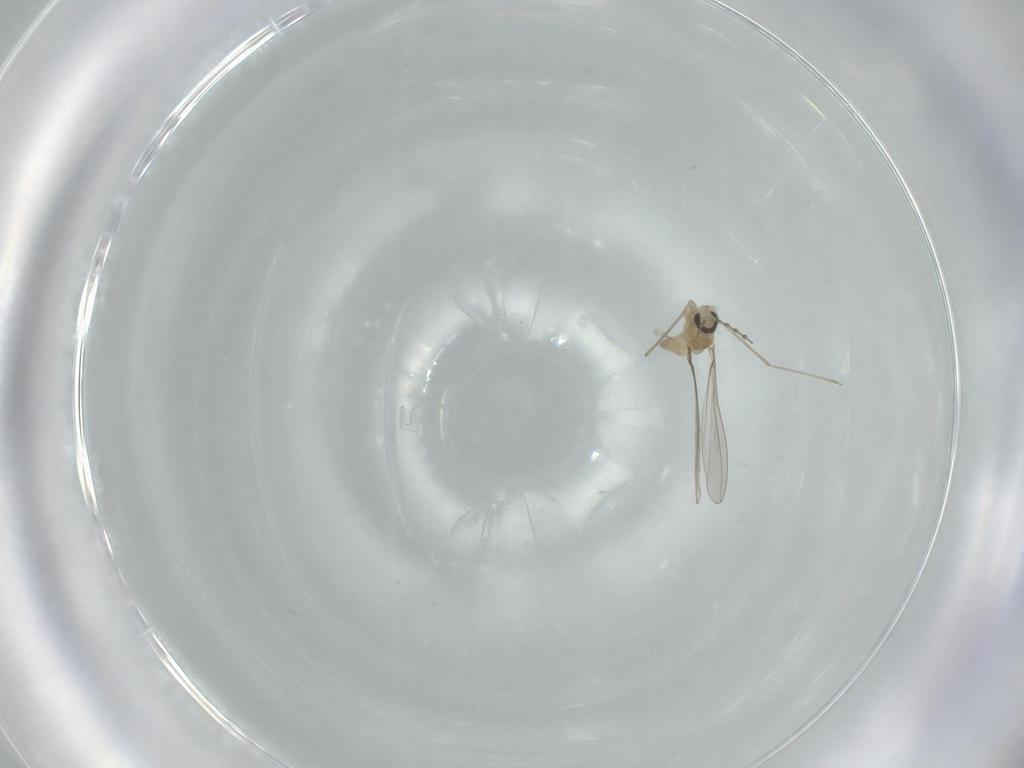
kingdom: Animalia
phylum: Arthropoda
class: Insecta
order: Diptera
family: Cecidomyiidae
